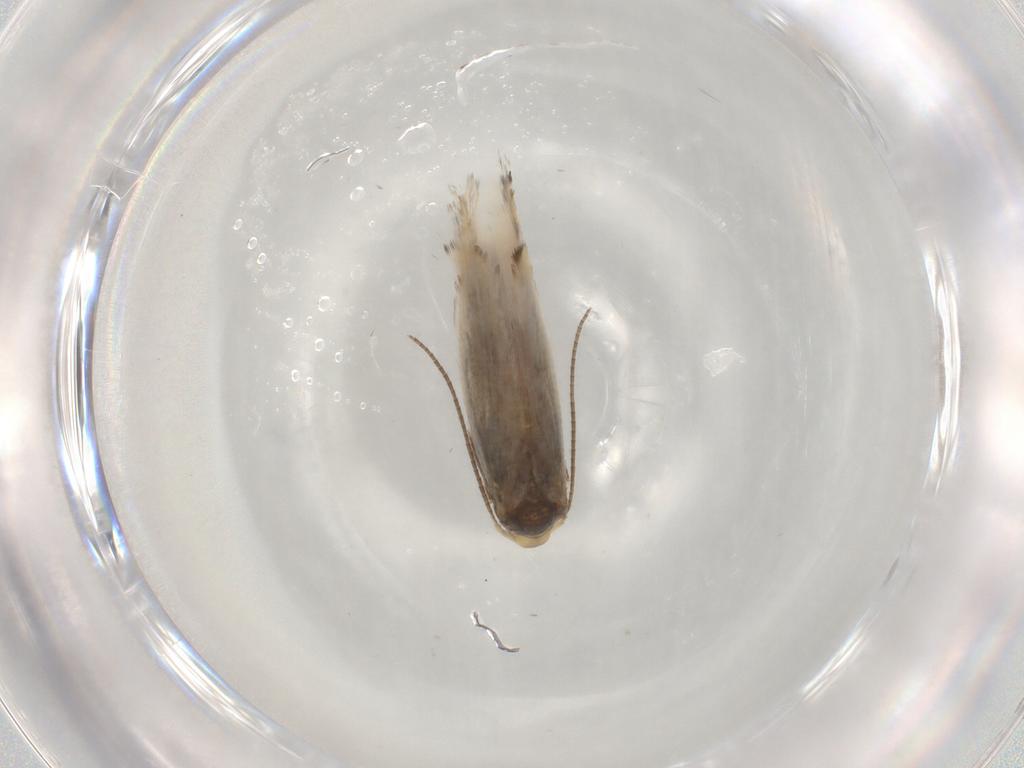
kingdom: Animalia
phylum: Arthropoda
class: Insecta
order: Lepidoptera
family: Gracillariidae
